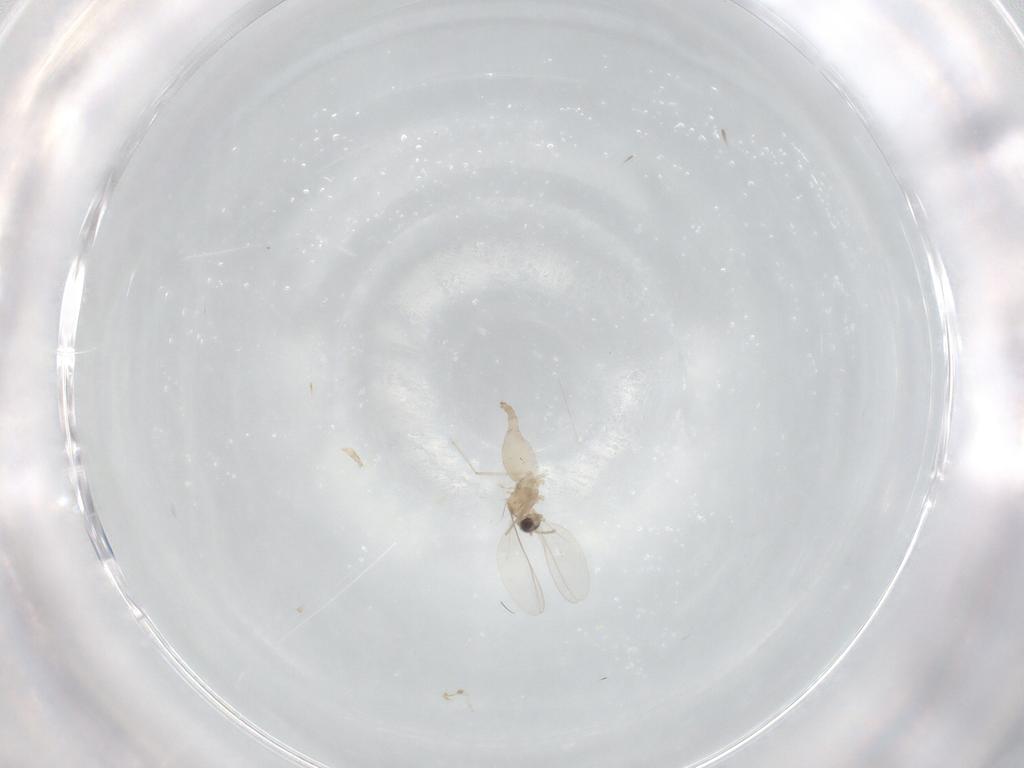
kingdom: Animalia
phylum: Arthropoda
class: Insecta
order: Diptera
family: Cecidomyiidae
